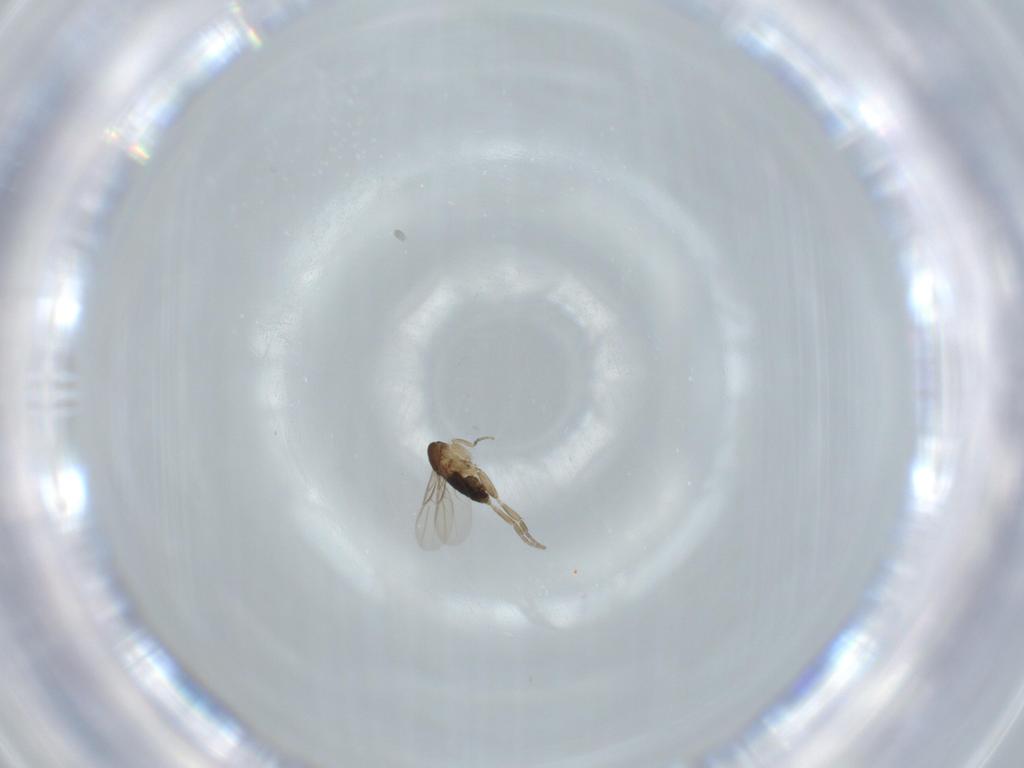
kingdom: Animalia
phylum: Arthropoda
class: Insecta
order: Diptera
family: Phoridae
